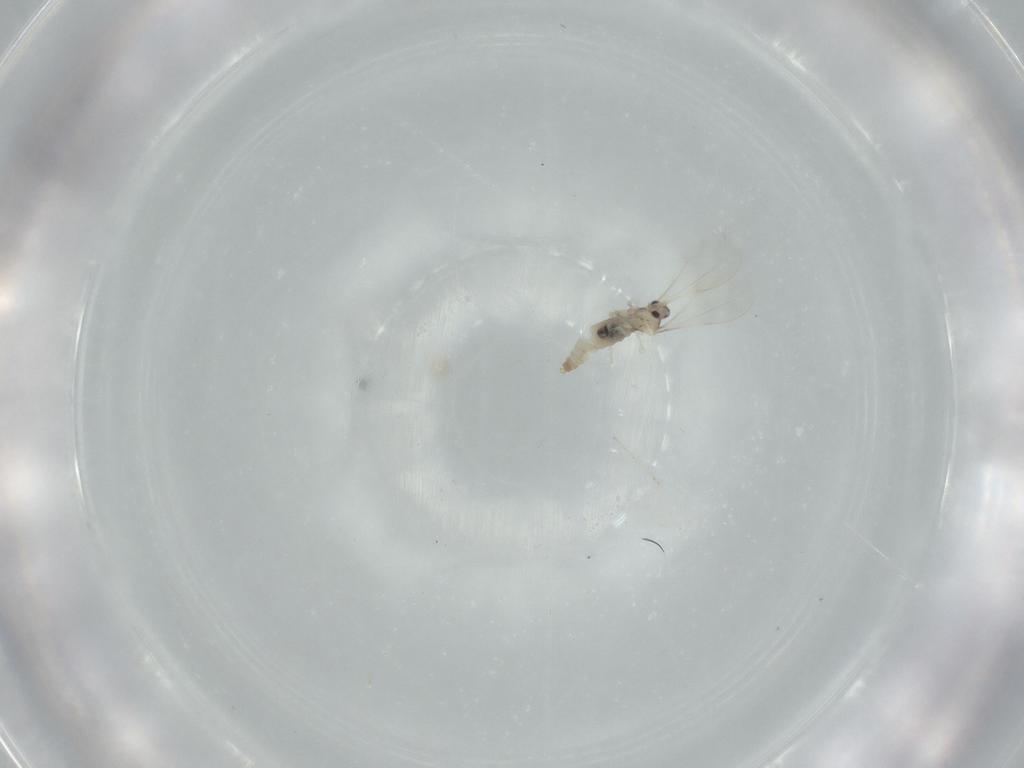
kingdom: Animalia
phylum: Arthropoda
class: Insecta
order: Diptera
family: Cecidomyiidae
